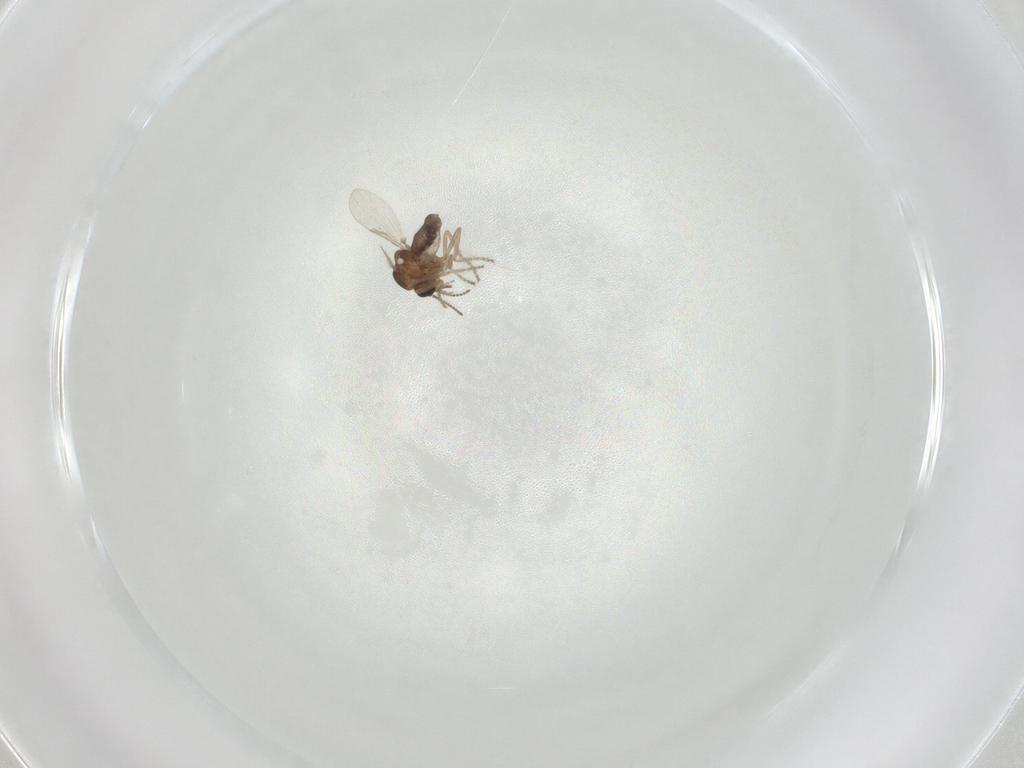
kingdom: Animalia
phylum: Arthropoda
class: Insecta
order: Diptera
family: Ceratopogonidae
